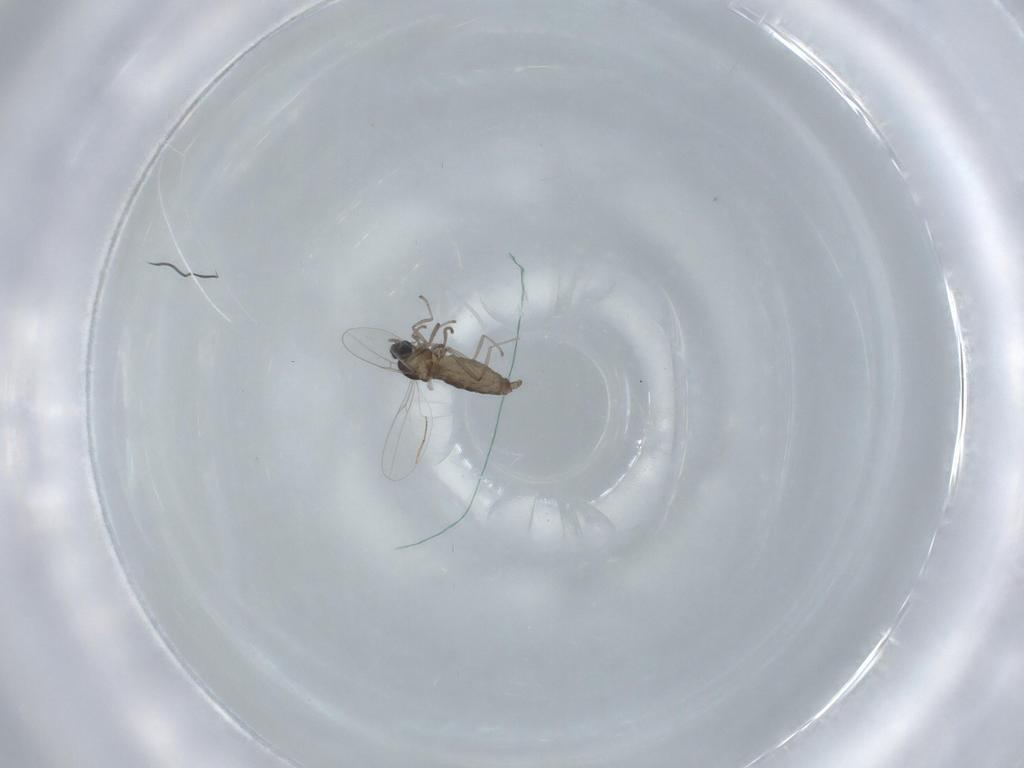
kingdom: Animalia
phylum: Arthropoda
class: Insecta
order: Diptera
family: Cecidomyiidae
